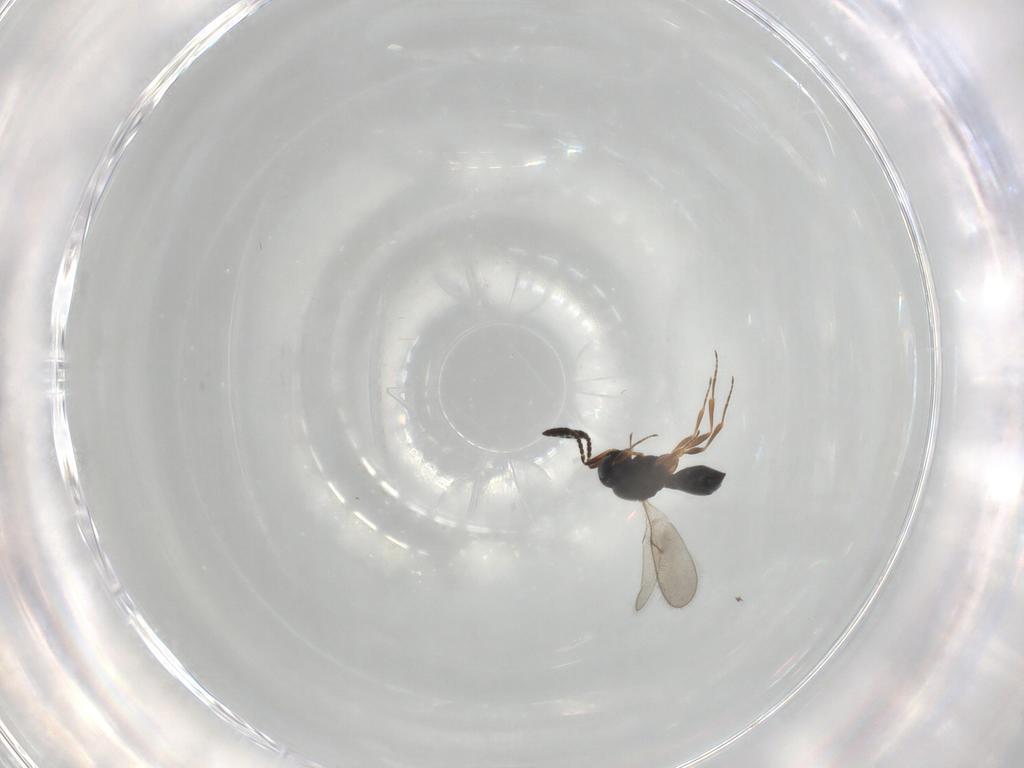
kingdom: Animalia
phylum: Arthropoda
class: Insecta
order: Hymenoptera
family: Scelionidae
